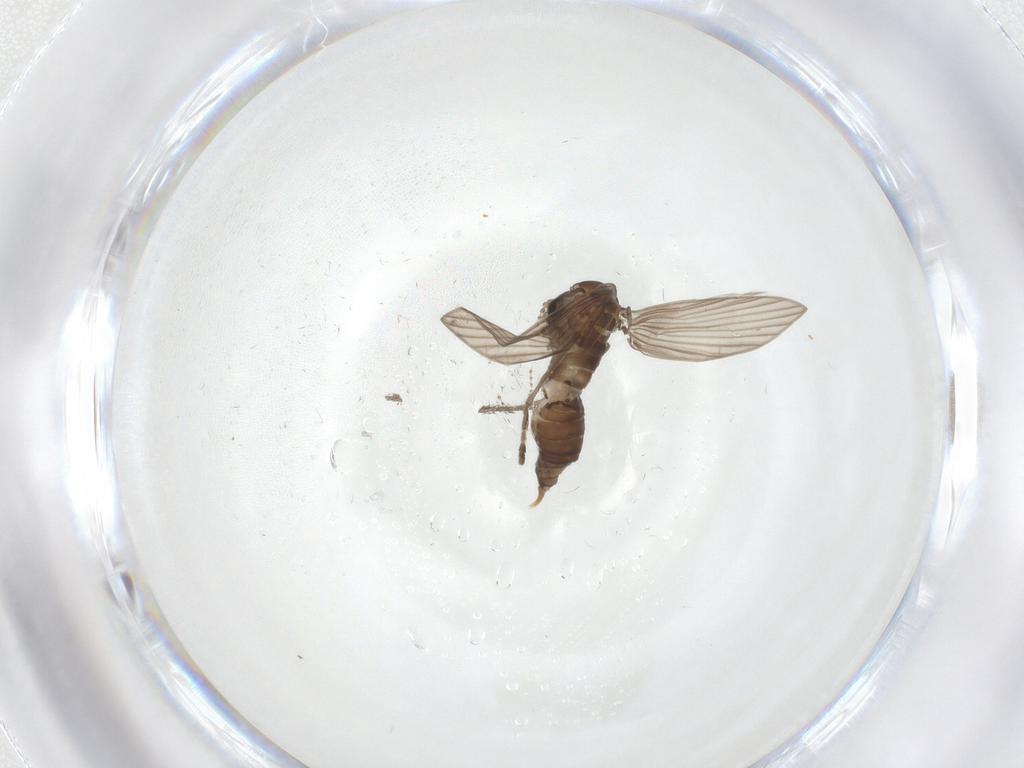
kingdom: Animalia
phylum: Arthropoda
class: Insecta
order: Diptera
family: Psychodidae
